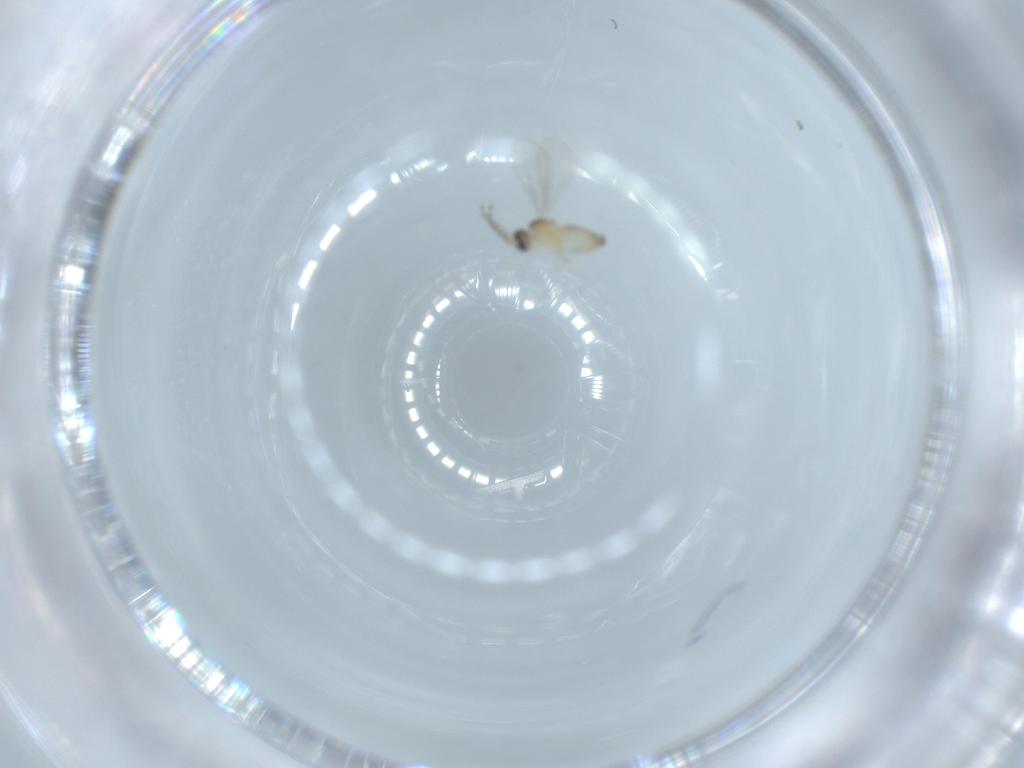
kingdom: Animalia
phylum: Arthropoda
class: Insecta
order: Diptera
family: Cecidomyiidae
